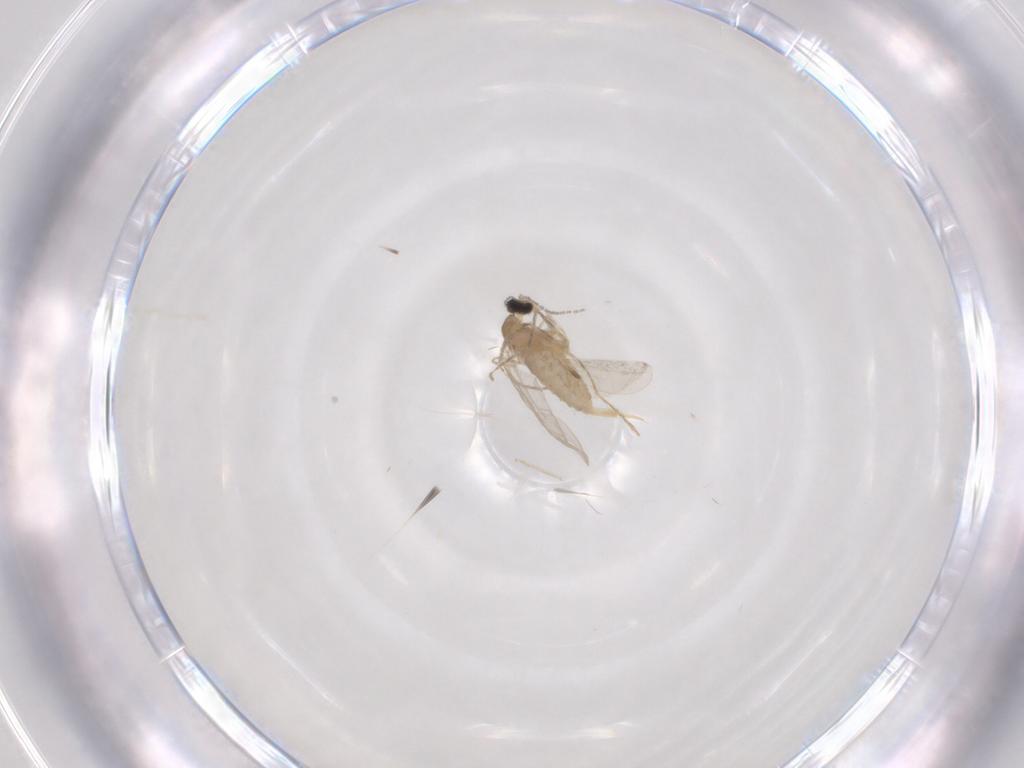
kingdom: Animalia
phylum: Arthropoda
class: Insecta
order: Diptera
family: Cecidomyiidae
